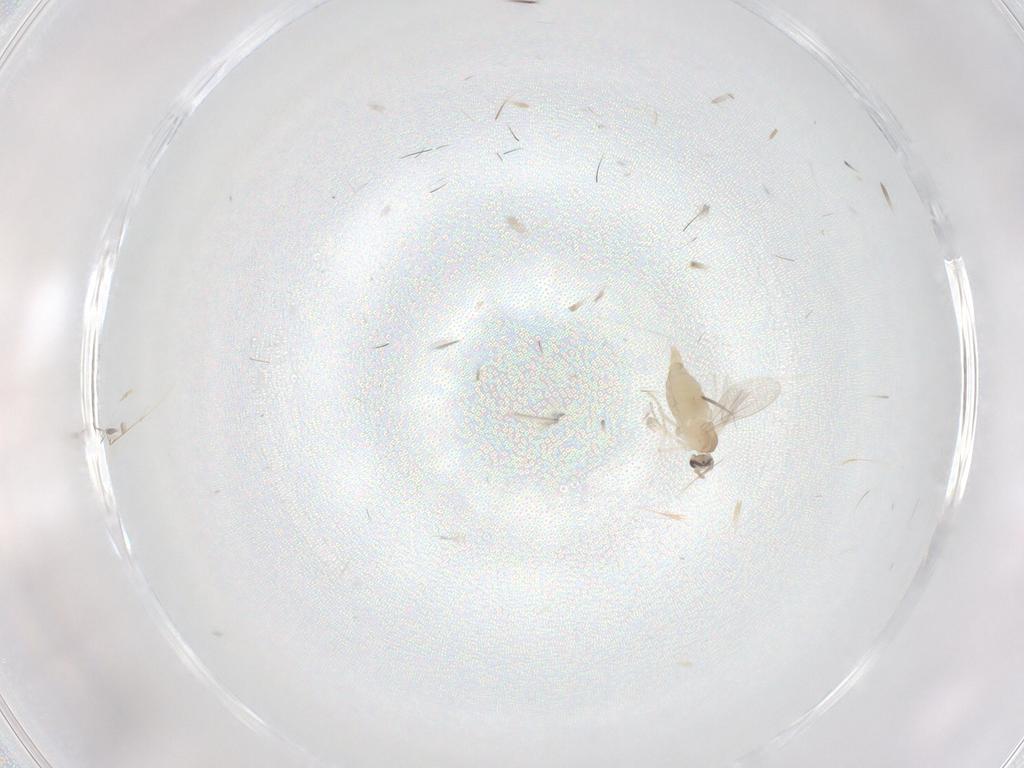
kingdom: Animalia
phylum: Arthropoda
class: Insecta
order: Diptera
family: Cecidomyiidae
